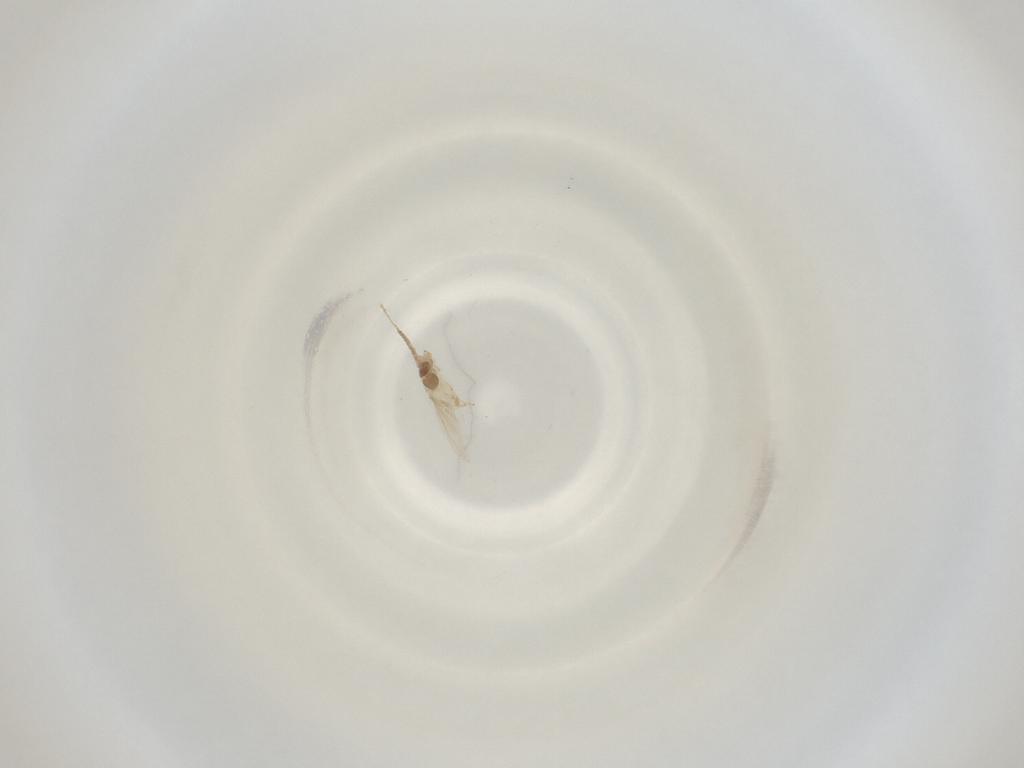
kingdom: Animalia
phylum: Arthropoda
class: Insecta
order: Diptera
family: Cecidomyiidae
